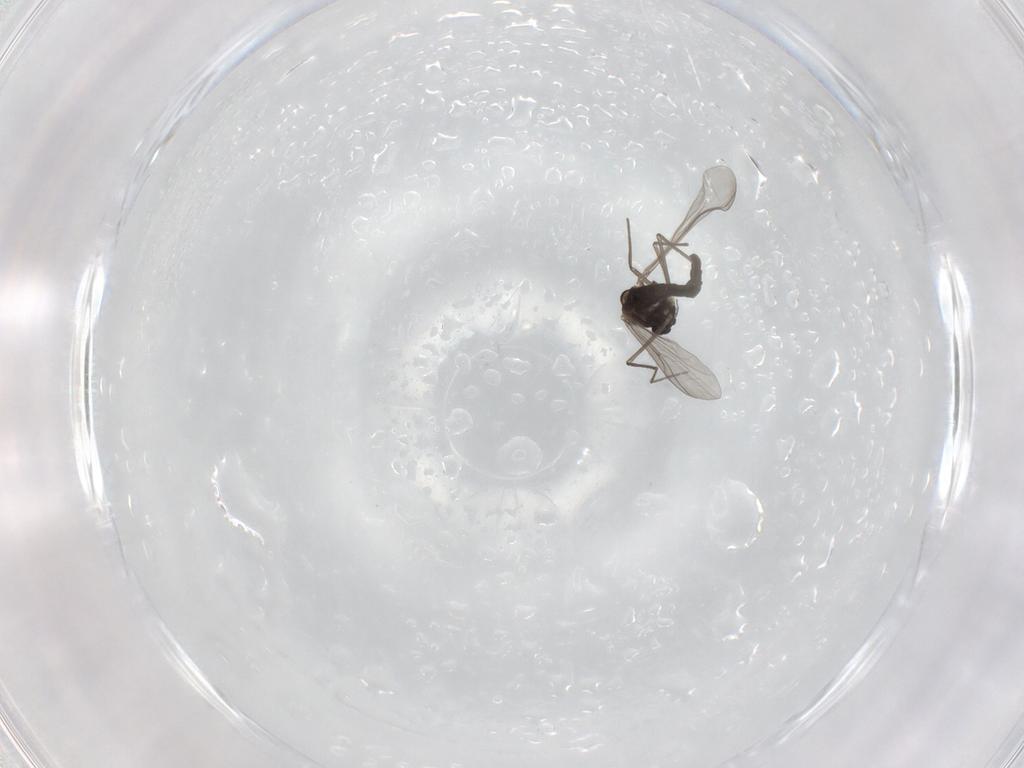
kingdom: Animalia
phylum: Arthropoda
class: Insecta
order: Diptera
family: Chironomidae
